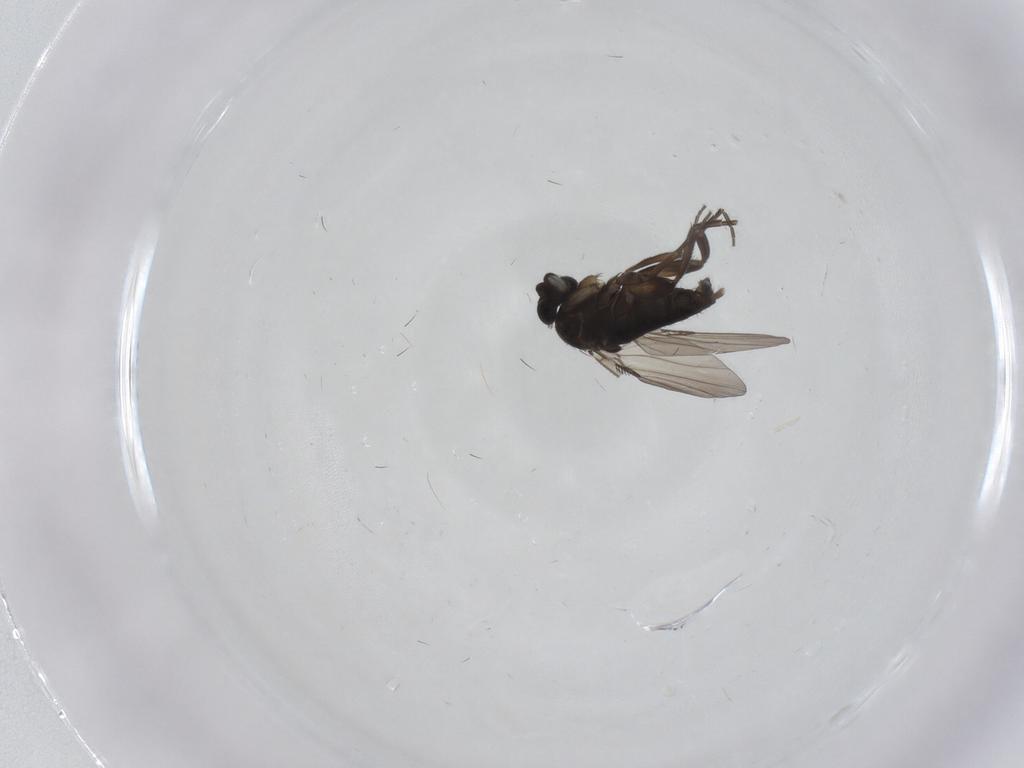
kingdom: Animalia
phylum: Arthropoda
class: Insecta
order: Diptera
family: Phoridae
